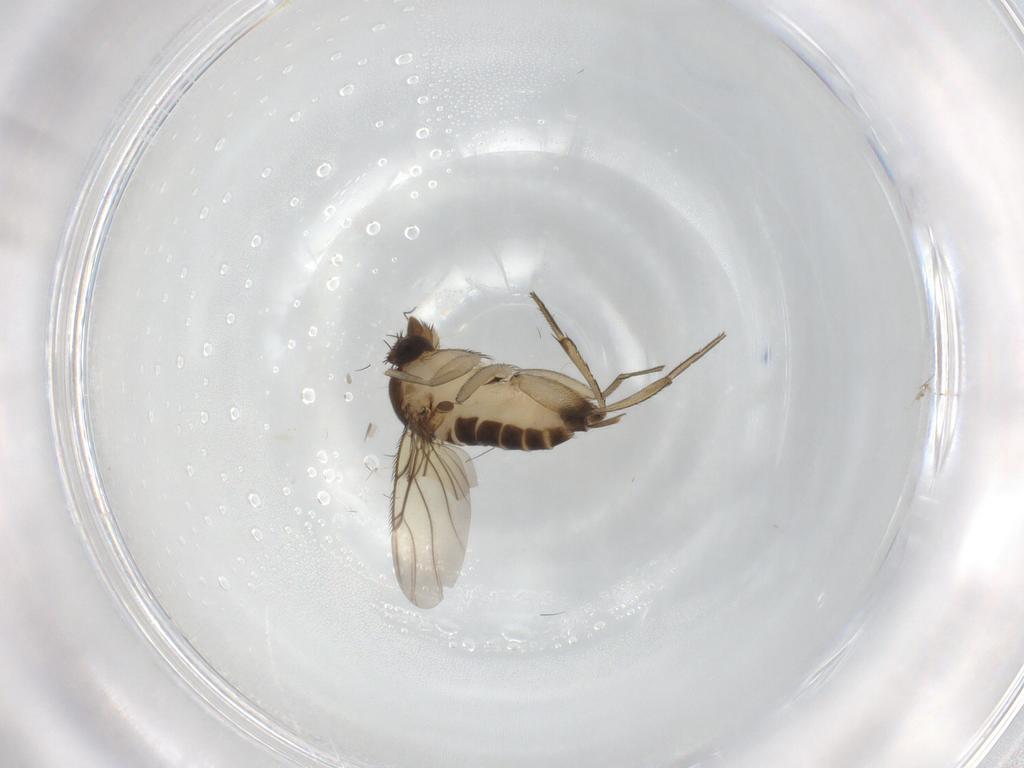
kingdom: Animalia
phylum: Arthropoda
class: Insecta
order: Diptera
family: Phoridae
